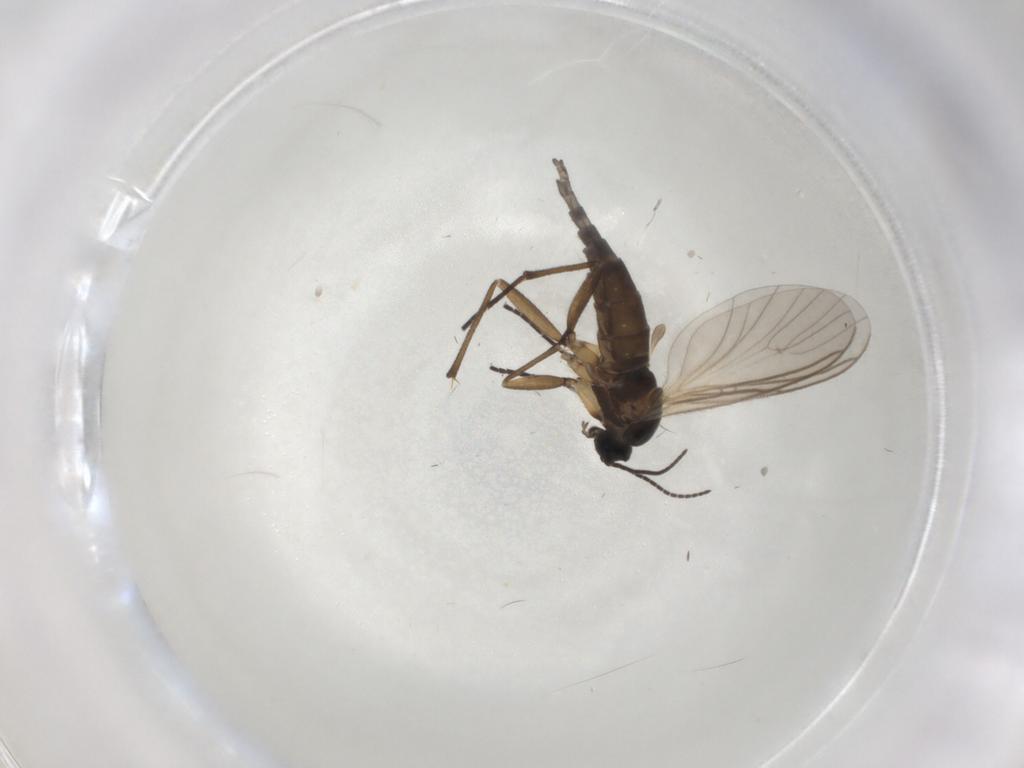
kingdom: Animalia
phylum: Arthropoda
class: Insecta
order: Diptera
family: Sciaridae
